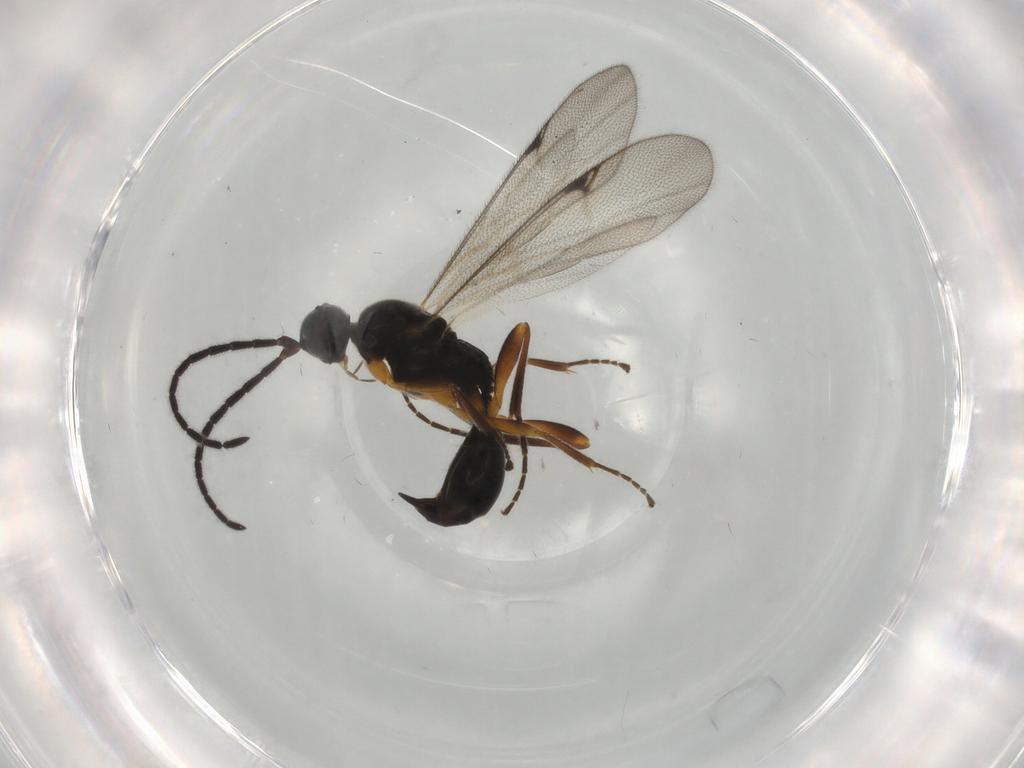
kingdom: Animalia
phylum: Arthropoda
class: Insecta
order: Hymenoptera
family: Proctotrupidae
